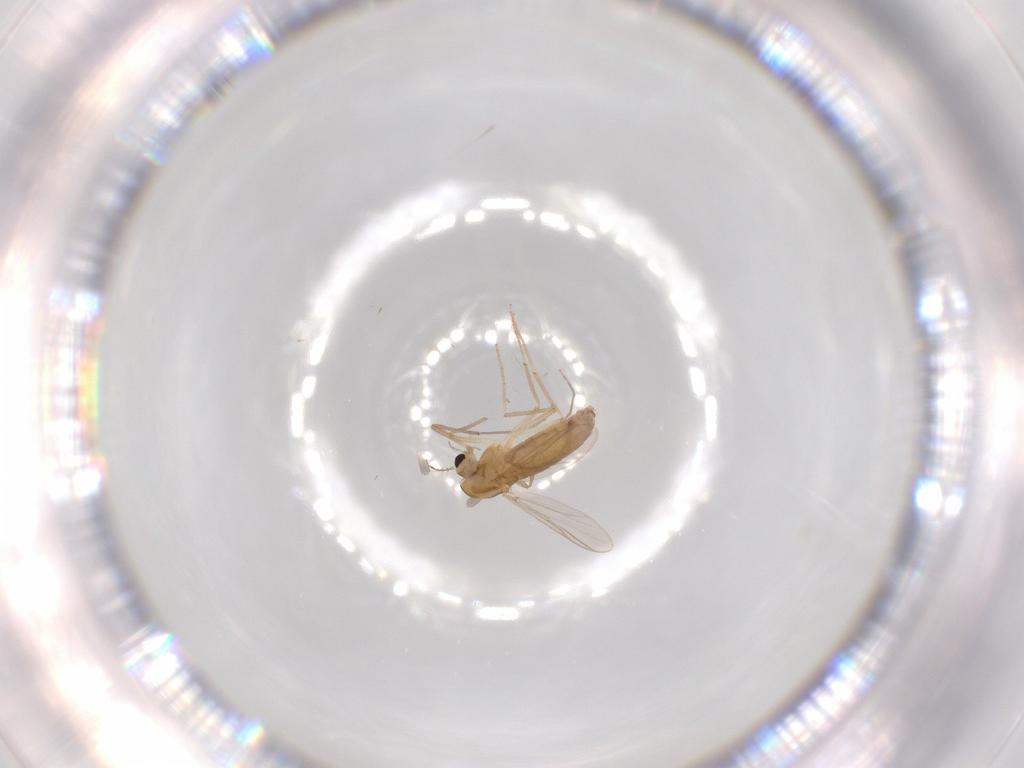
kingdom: Animalia
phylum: Arthropoda
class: Insecta
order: Diptera
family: Chironomidae
